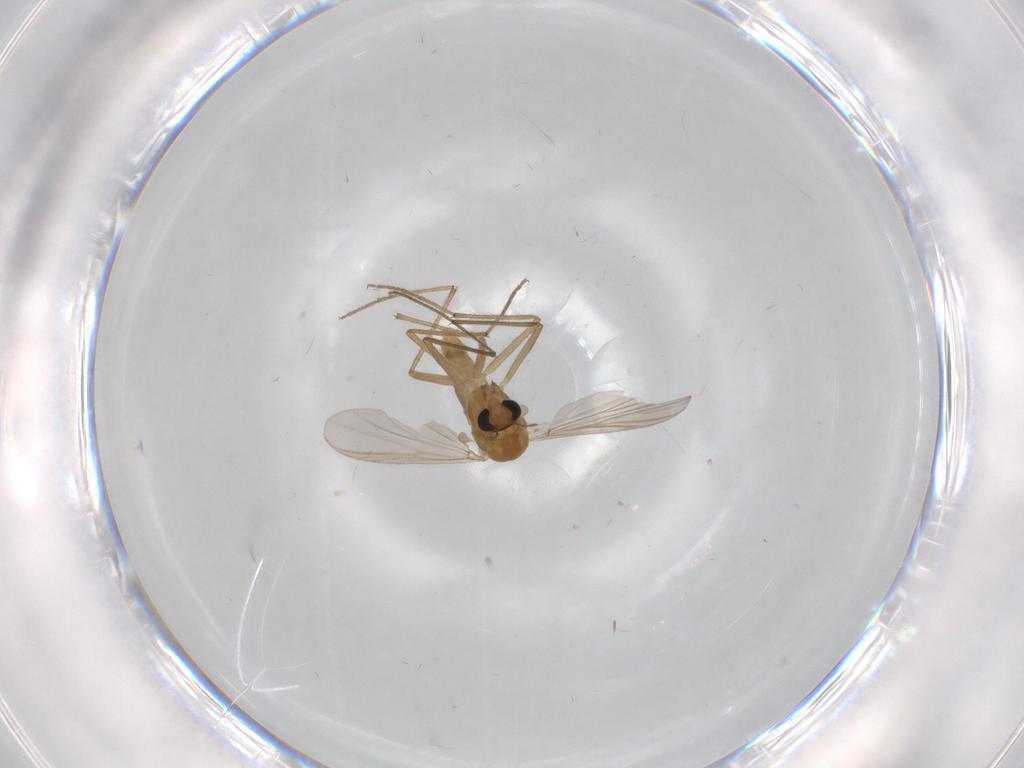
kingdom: Animalia
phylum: Arthropoda
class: Insecta
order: Diptera
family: Chironomidae
